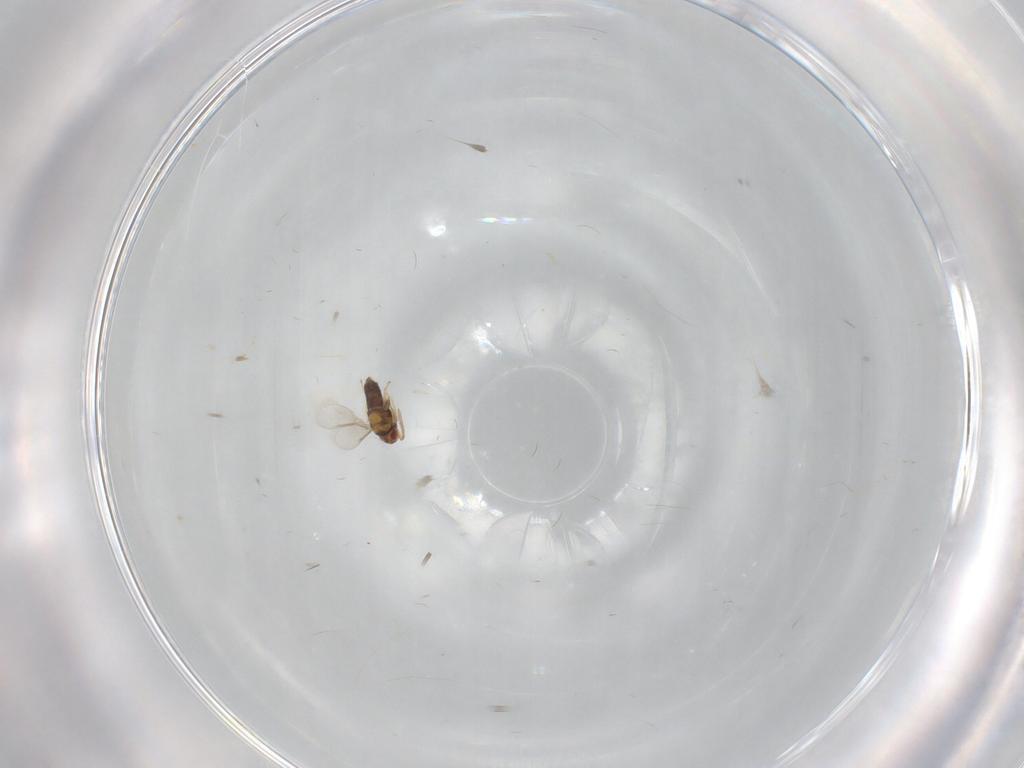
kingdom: Animalia
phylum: Arthropoda
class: Insecta
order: Hymenoptera
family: Aphelinidae
